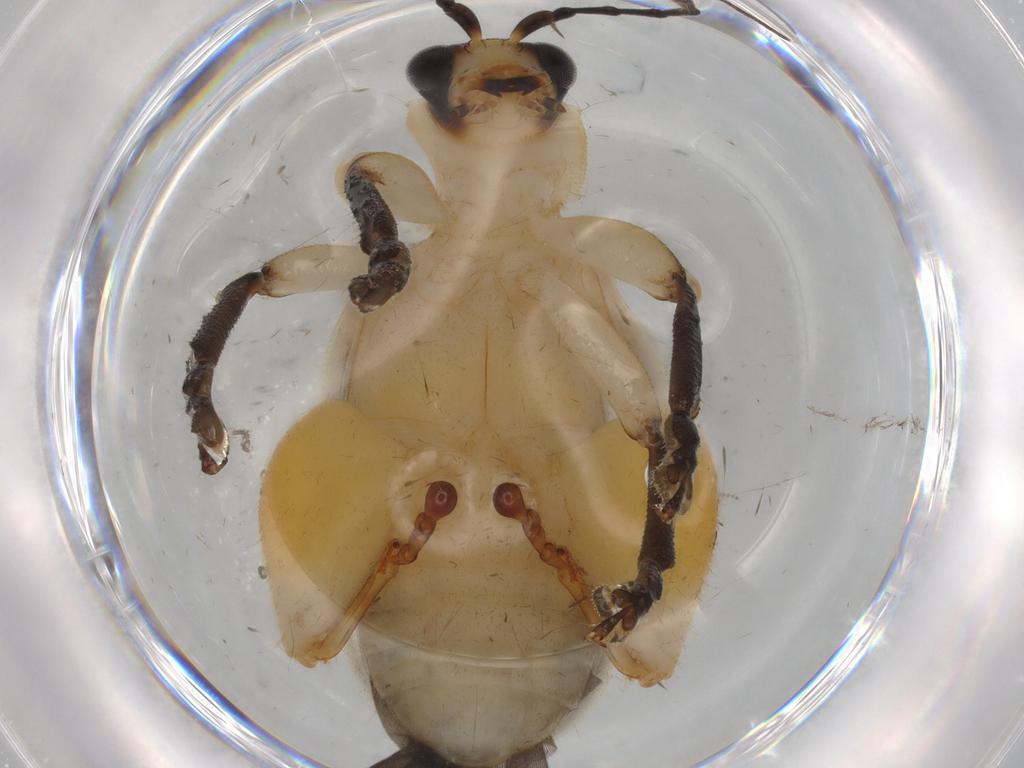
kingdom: Animalia
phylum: Arthropoda
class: Insecta
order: Coleoptera
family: Chrysomelidae
